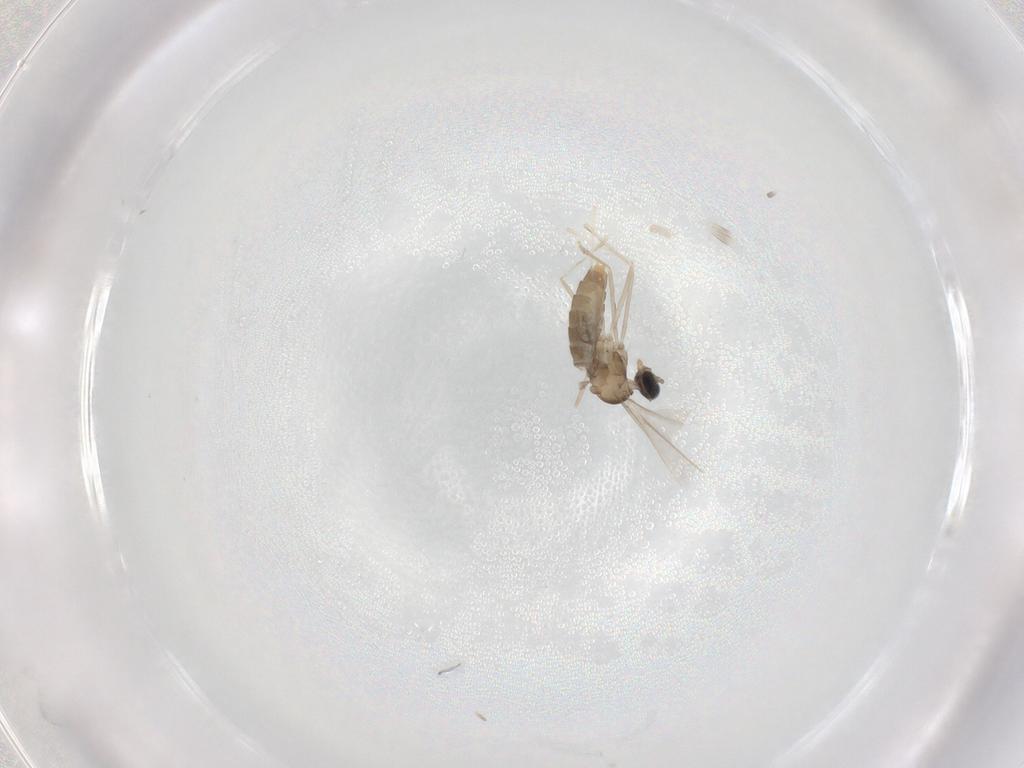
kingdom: Animalia
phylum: Arthropoda
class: Insecta
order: Diptera
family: Cecidomyiidae
